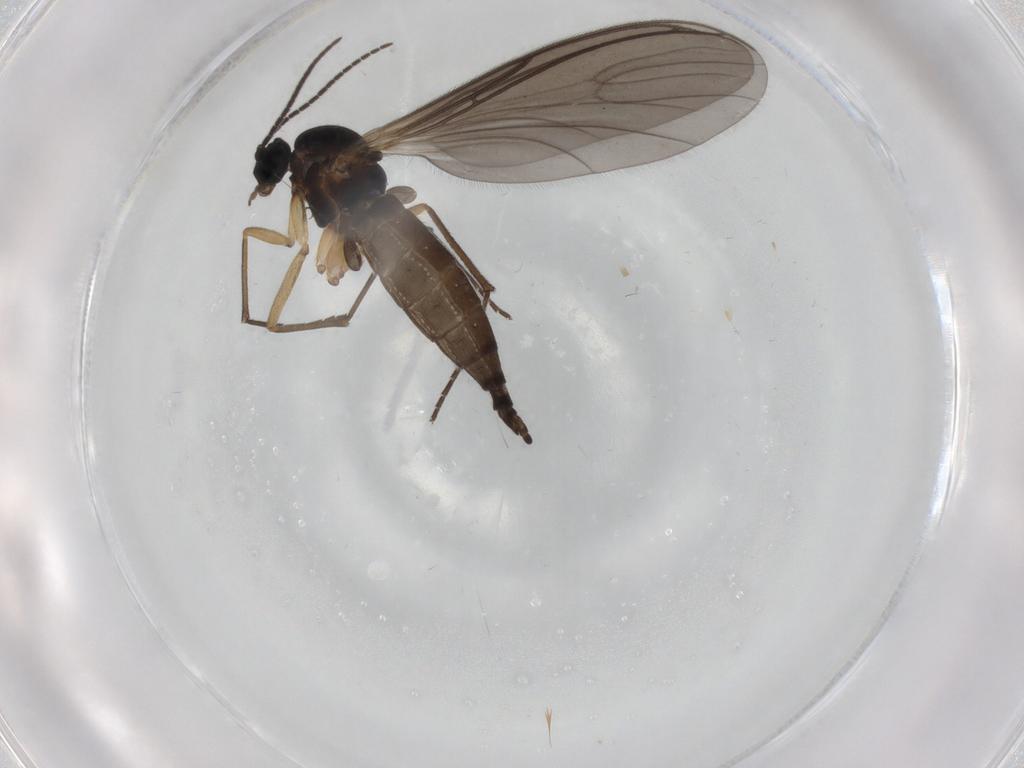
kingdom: Animalia
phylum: Arthropoda
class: Insecta
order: Diptera
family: Sciaridae
